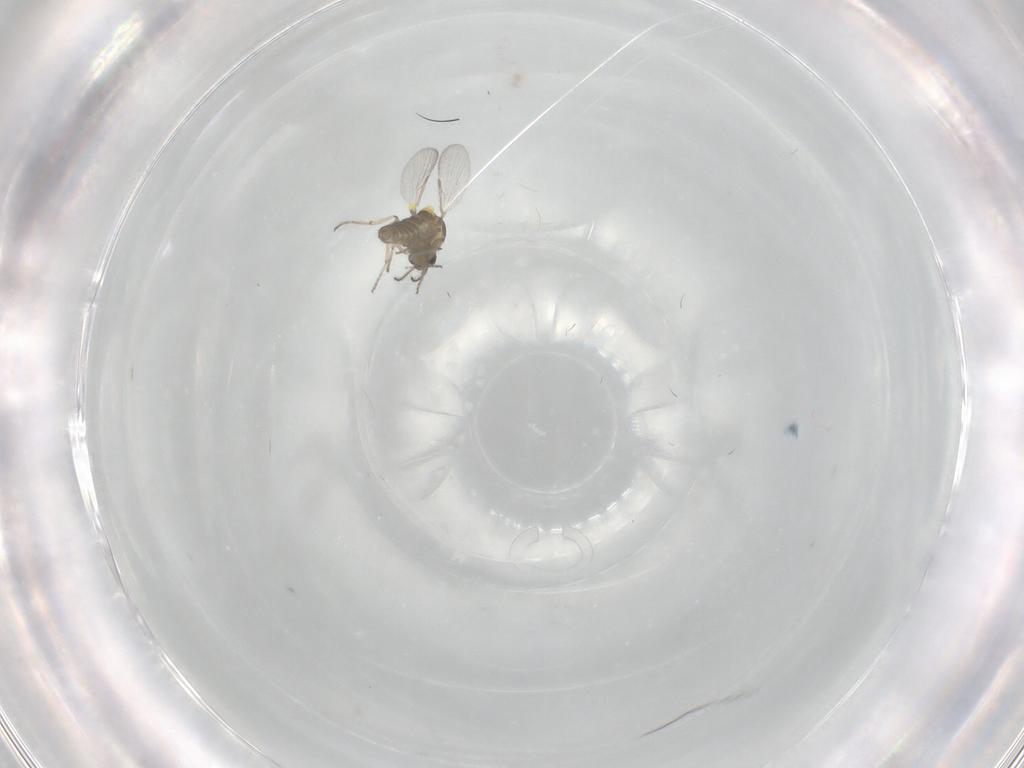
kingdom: Animalia
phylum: Arthropoda
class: Insecta
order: Diptera
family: Ceratopogonidae
